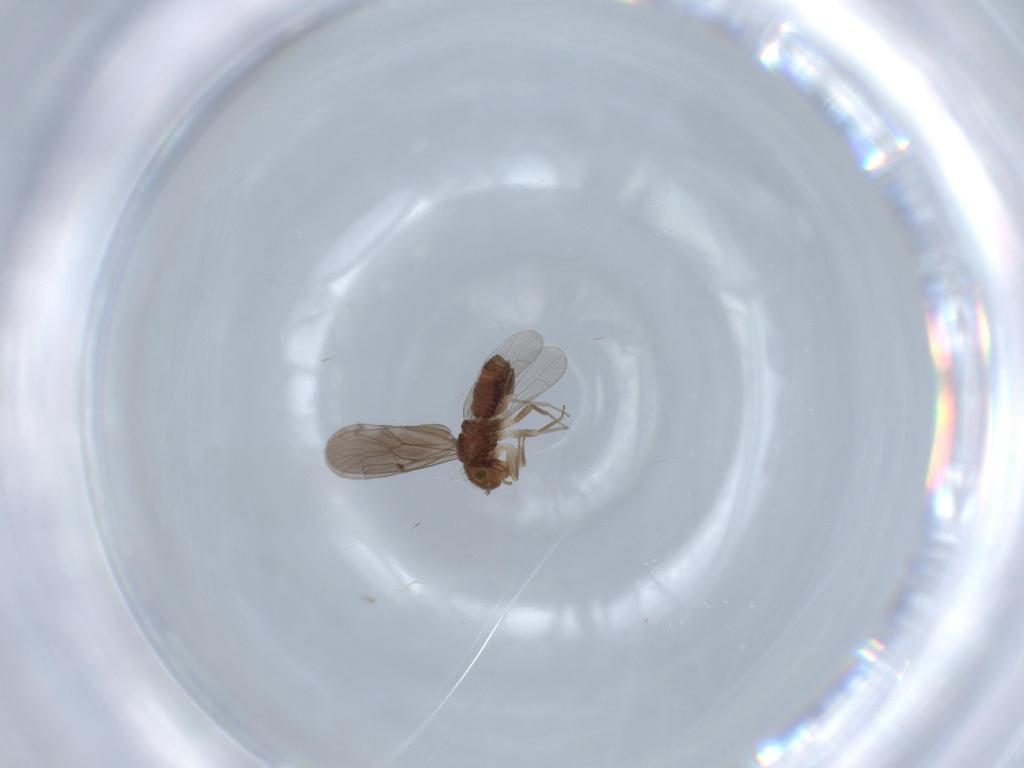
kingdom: Animalia
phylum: Arthropoda
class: Insecta
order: Psocodea
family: Ectopsocidae
